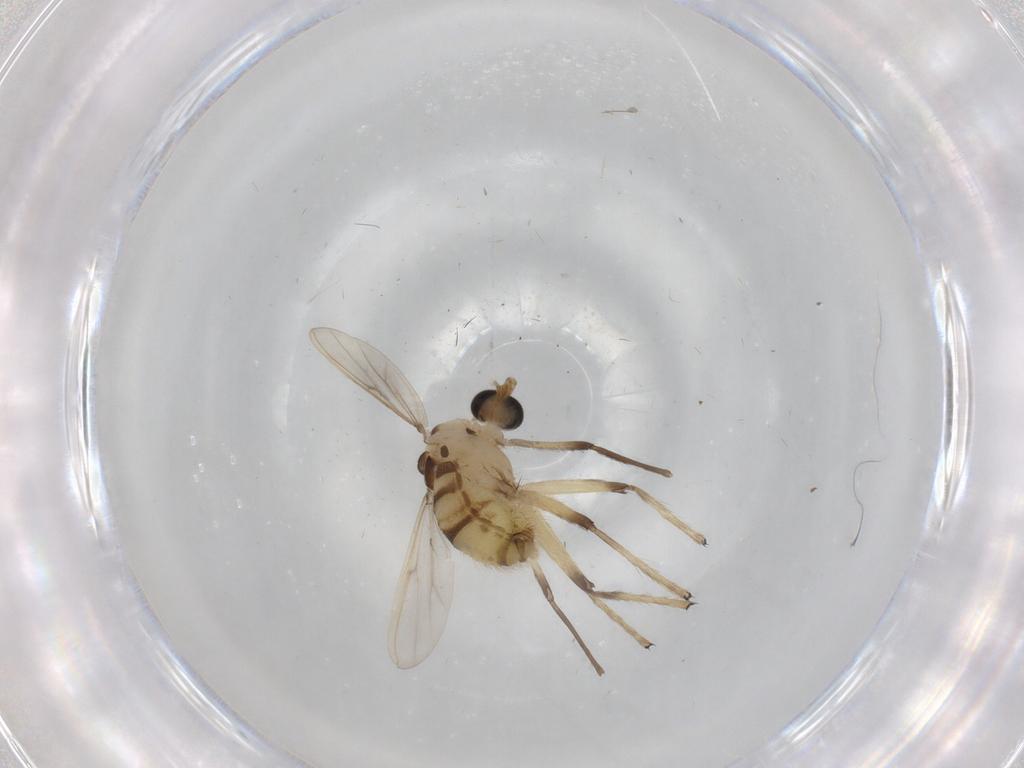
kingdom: Animalia
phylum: Arthropoda
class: Insecta
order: Diptera
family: Chironomidae
